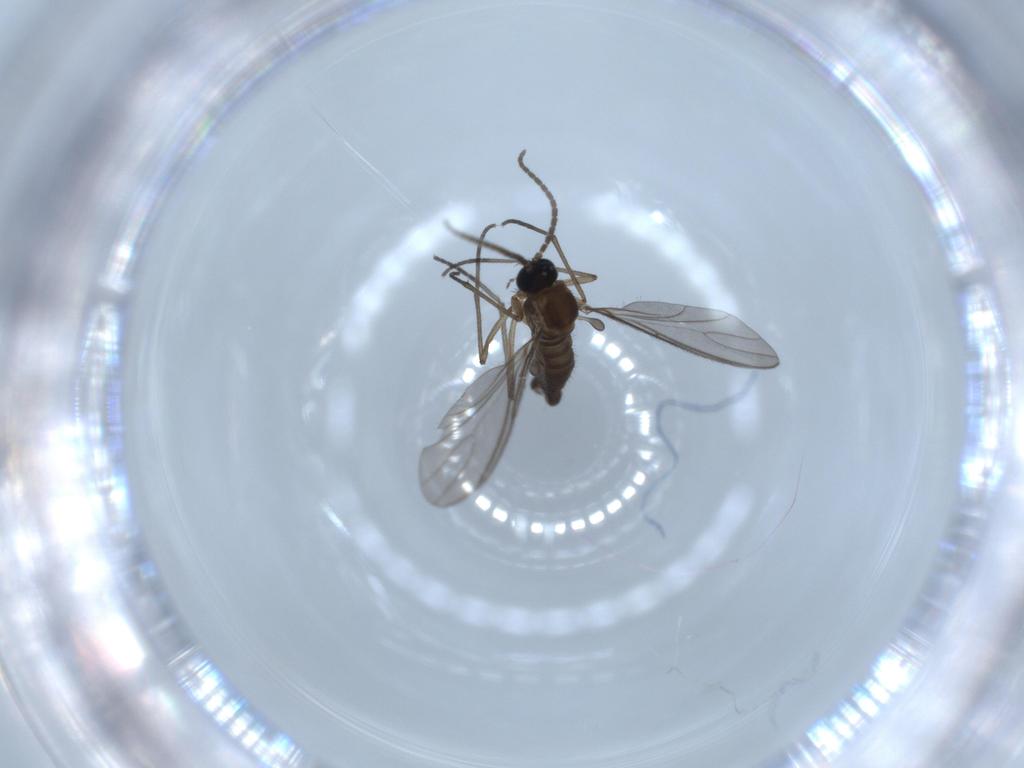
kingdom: Animalia
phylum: Arthropoda
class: Insecta
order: Diptera
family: Sciaridae
